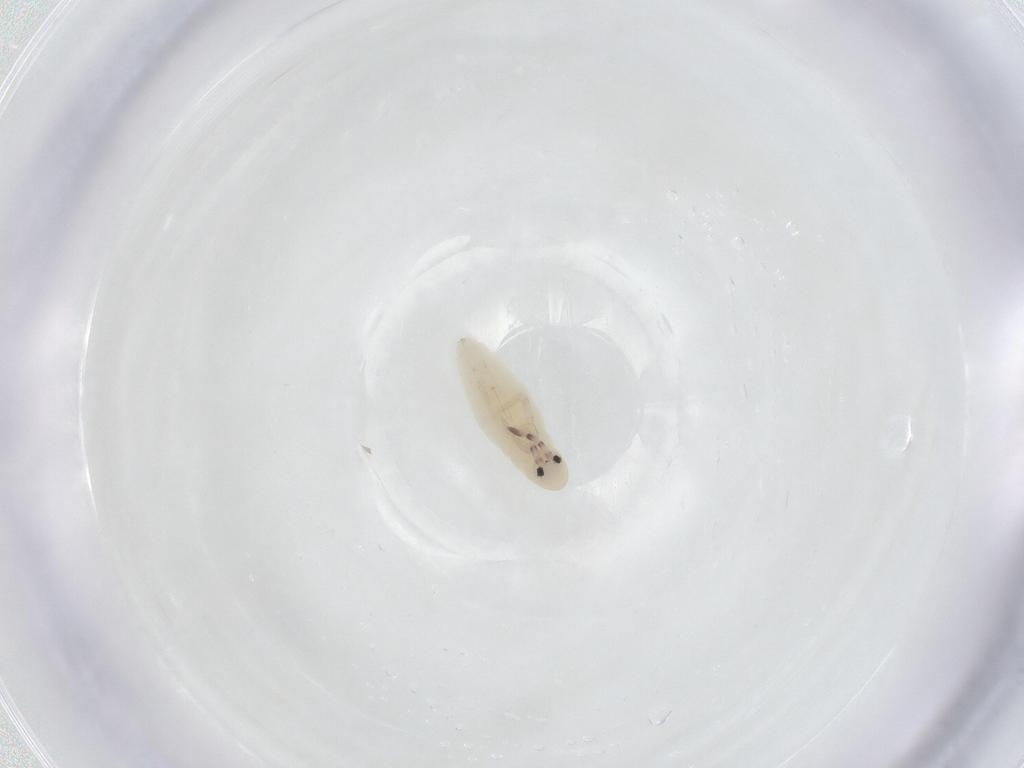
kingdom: Animalia
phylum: Arthropoda
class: Collembola
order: Entomobryomorpha
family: Entomobryidae
